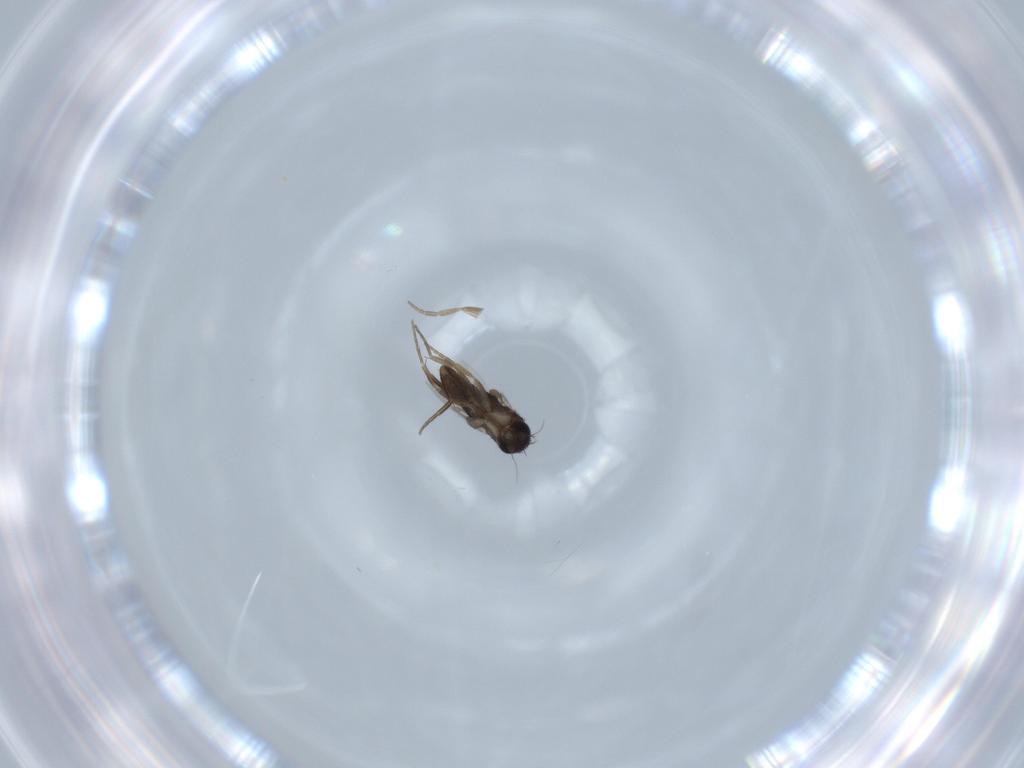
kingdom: Animalia
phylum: Arthropoda
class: Insecta
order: Diptera
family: Phoridae
